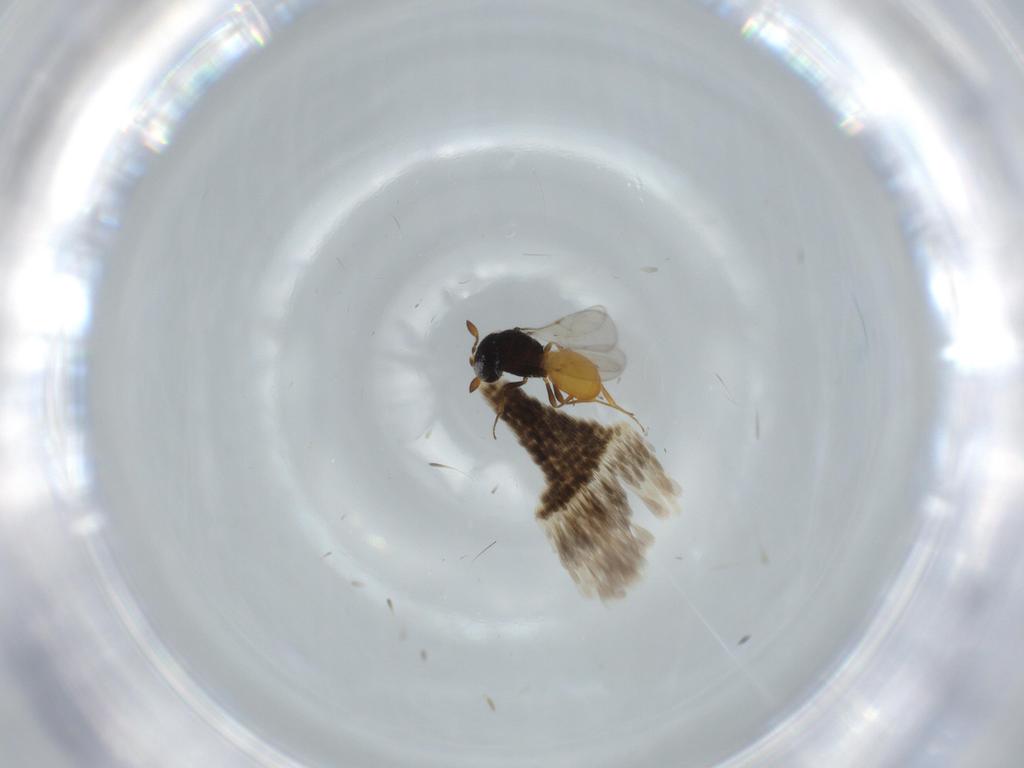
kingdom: Animalia
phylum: Arthropoda
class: Insecta
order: Hymenoptera
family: Scelionidae
